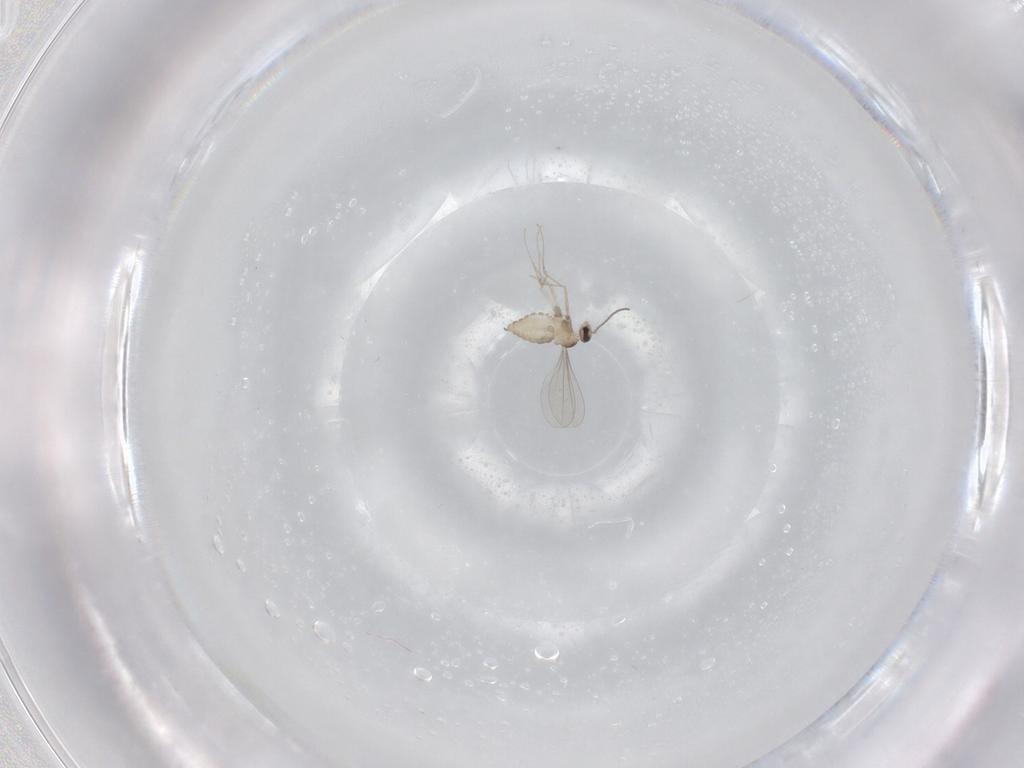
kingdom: Animalia
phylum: Arthropoda
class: Insecta
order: Diptera
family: Cecidomyiidae
